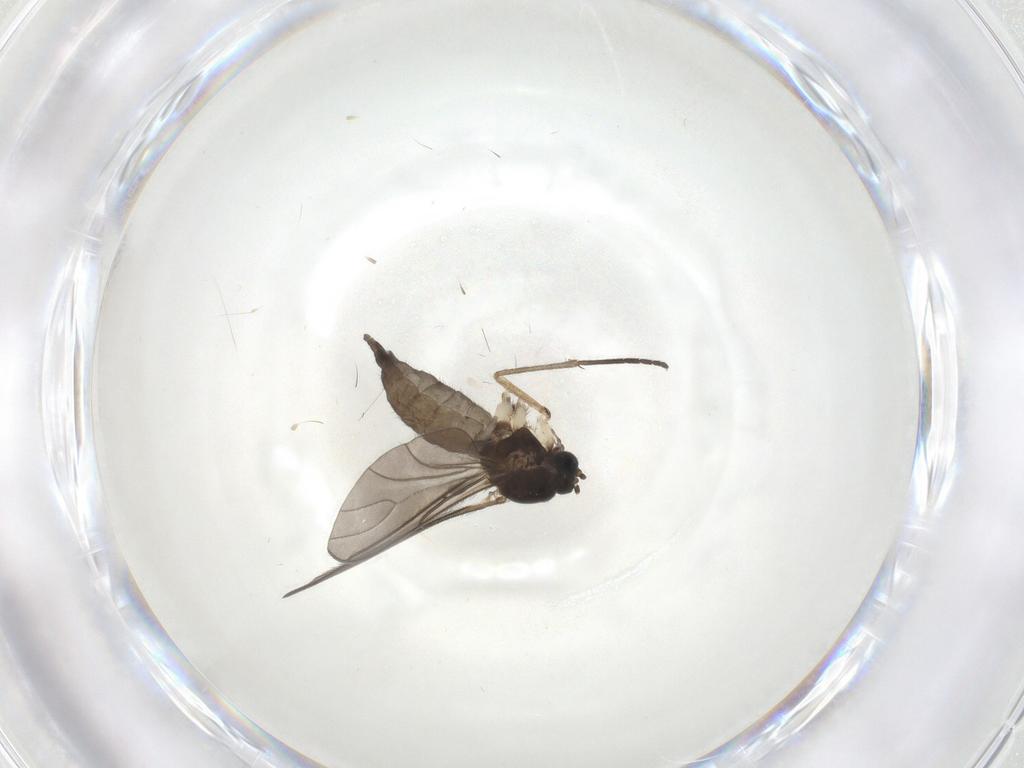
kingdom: Animalia
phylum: Arthropoda
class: Insecta
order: Diptera
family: Sciaridae
